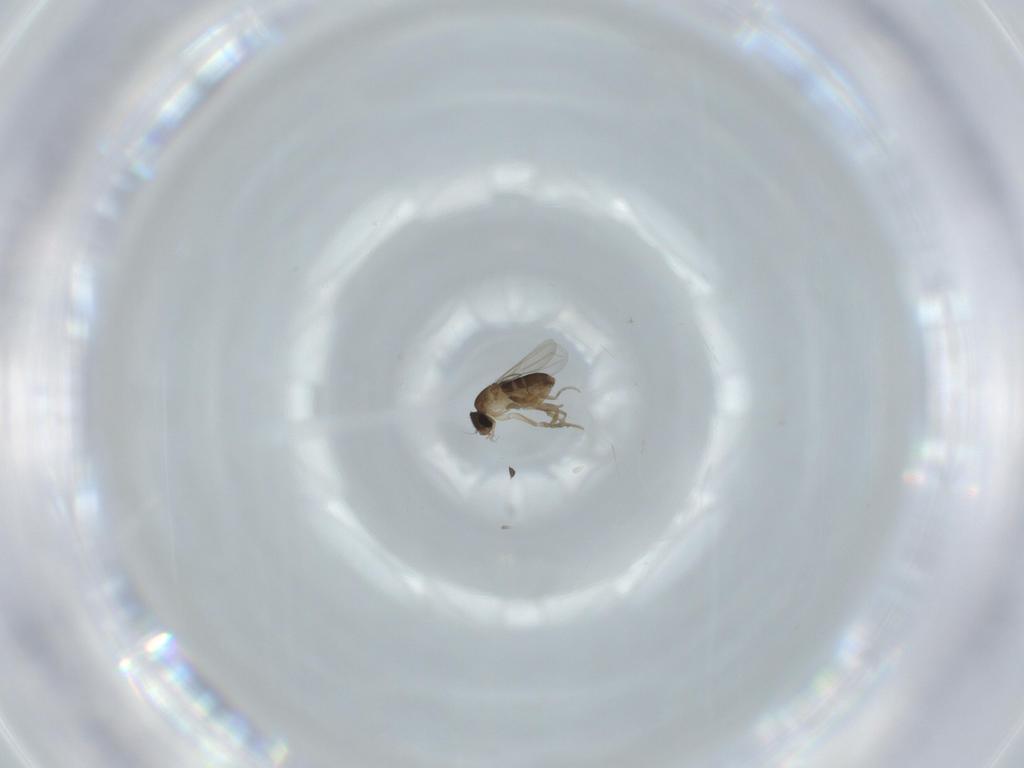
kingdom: Animalia
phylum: Arthropoda
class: Insecta
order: Diptera
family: Phoridae
